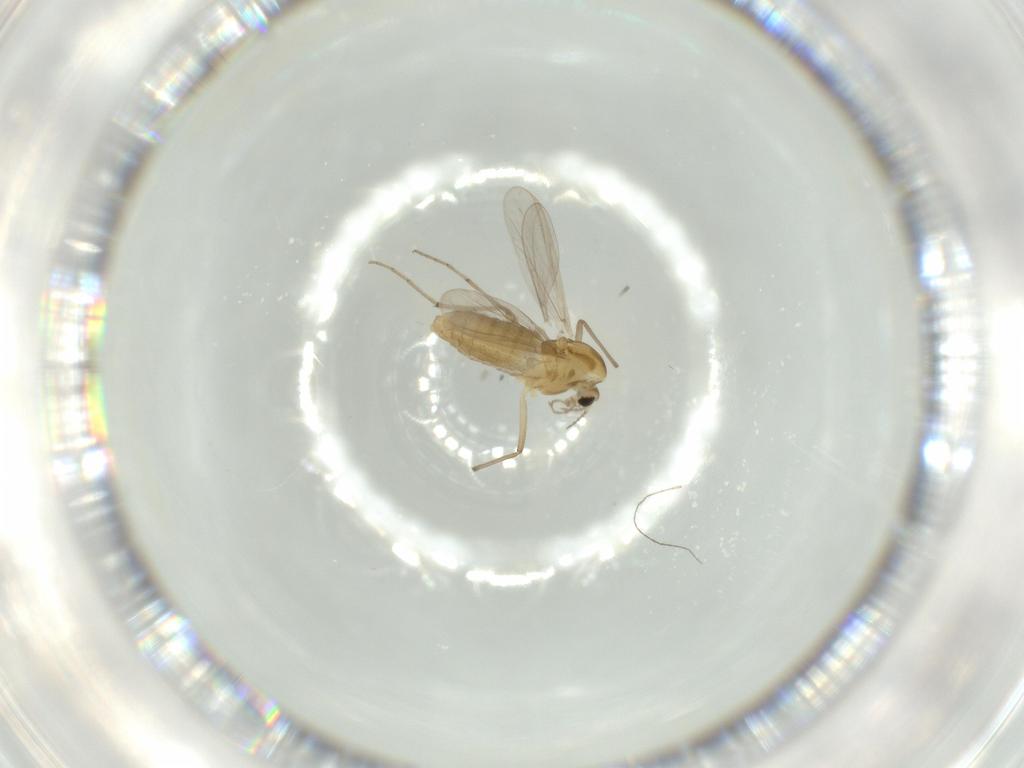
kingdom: Animalia
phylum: Arthropoda
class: Insecta
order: Diptera
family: Chironomidae
